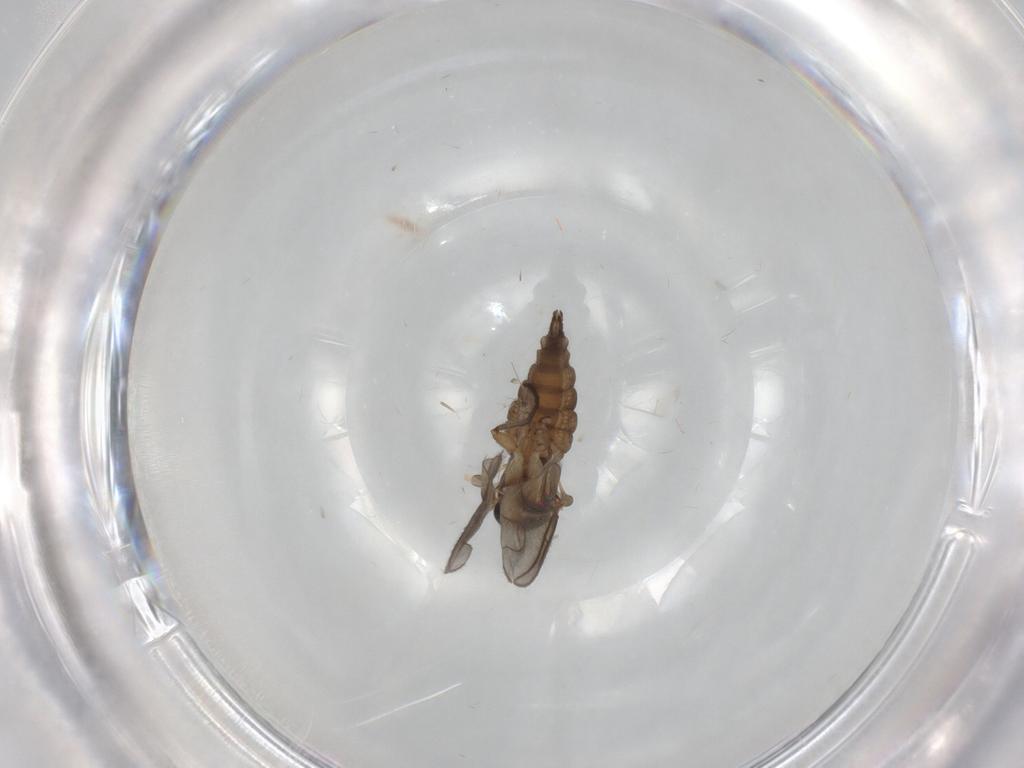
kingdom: Animalia
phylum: Arthropoda
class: Insecta
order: Diptera
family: Sciaridae
